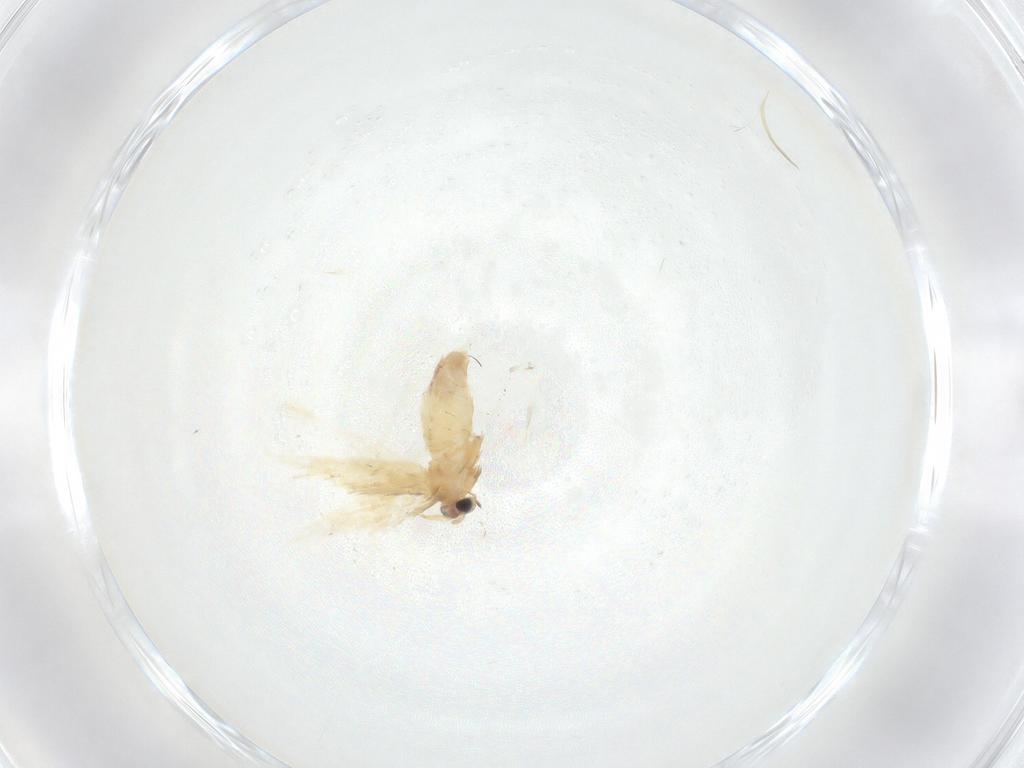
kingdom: Animalia
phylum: Arthropoda
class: Insecta
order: Lepidoptera
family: Nepticulidae
